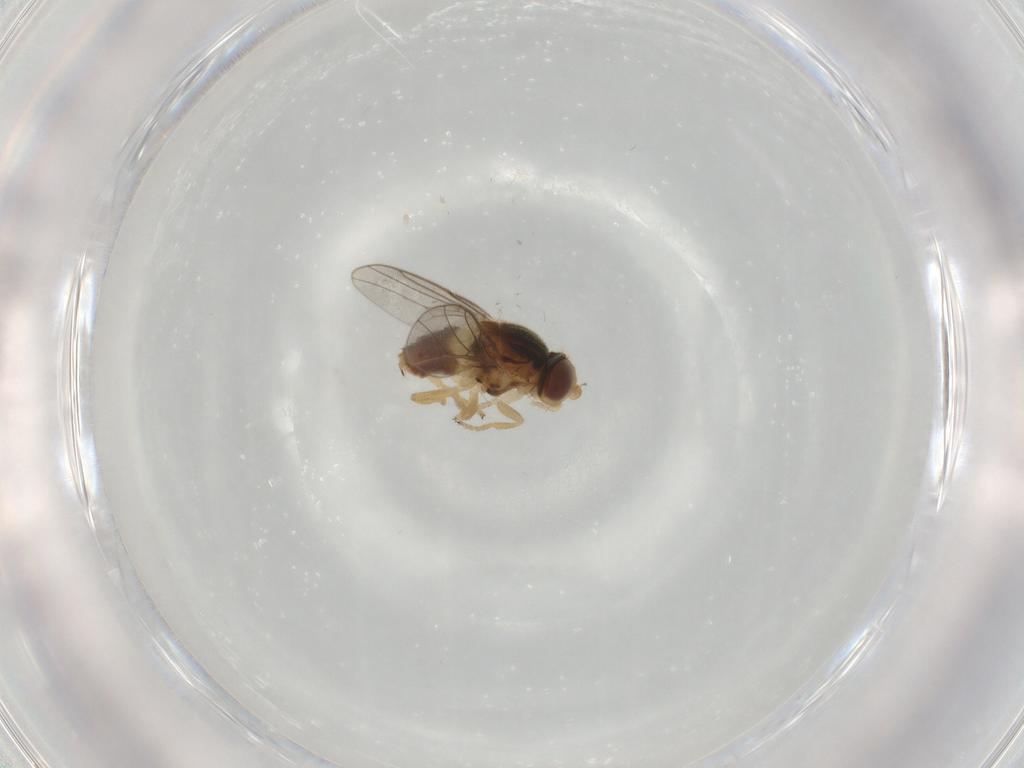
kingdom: Animalia
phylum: Arthropoda
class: Insecta
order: Diptera
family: Chloropidae
